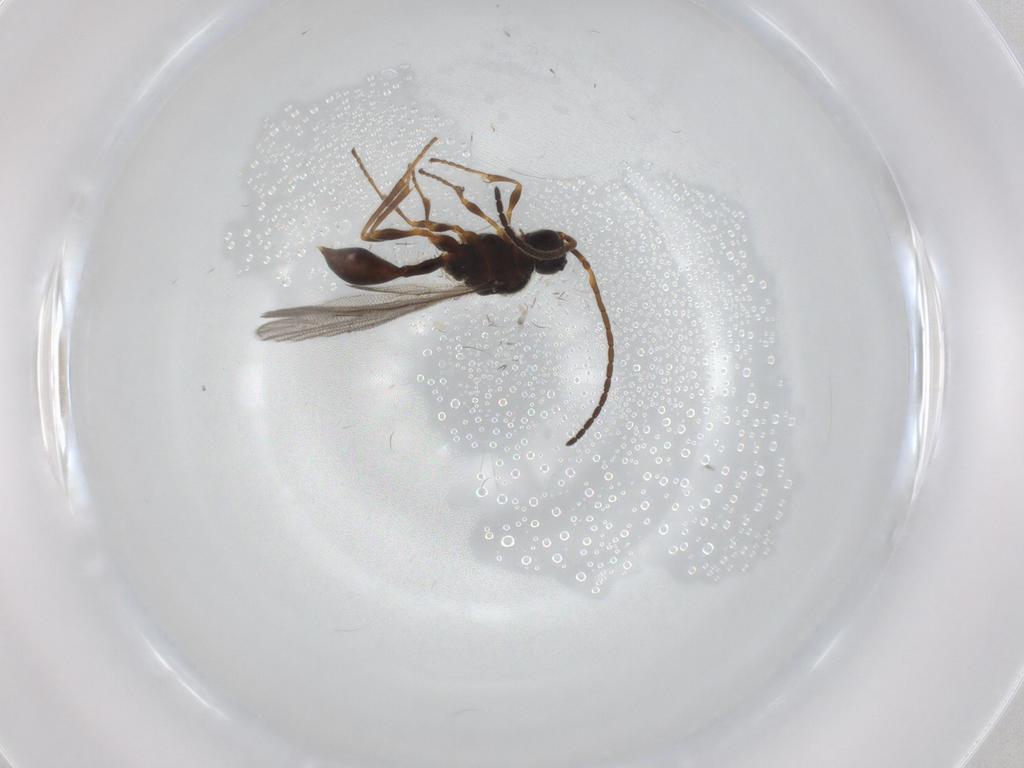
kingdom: Animalia
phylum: Arthropoda
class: Insecta
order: Hymenoptera
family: Diapriidae
